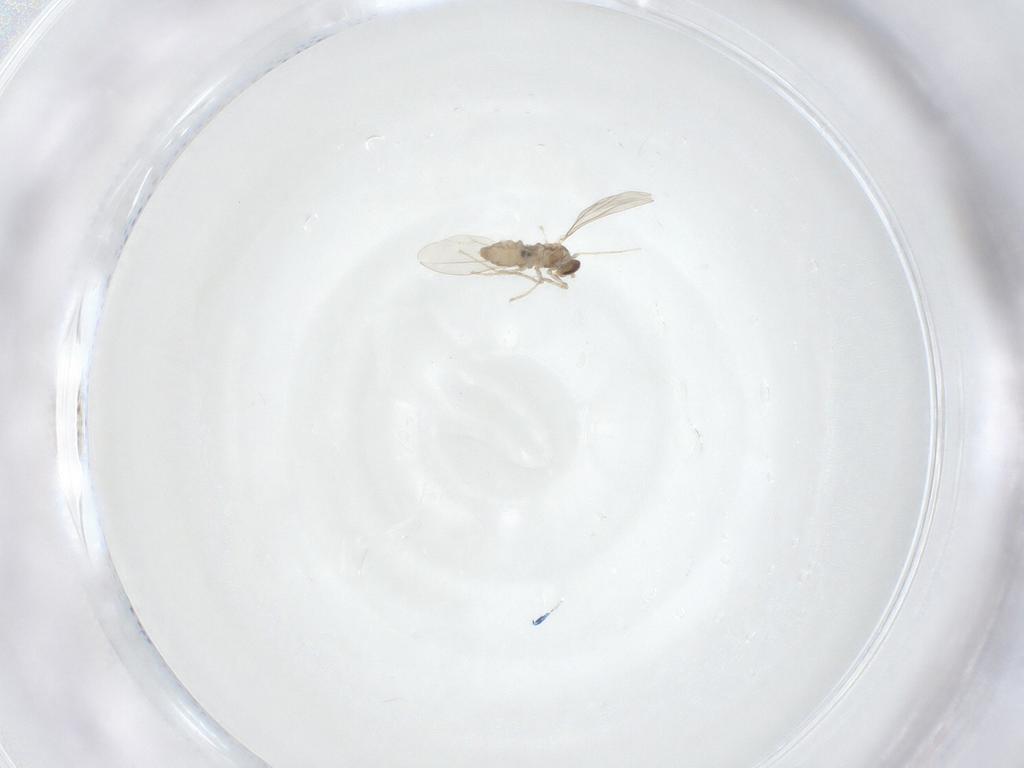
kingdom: Animalia
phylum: Arthropoda
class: Insecta
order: Diptera
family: Cecidomyiidae
